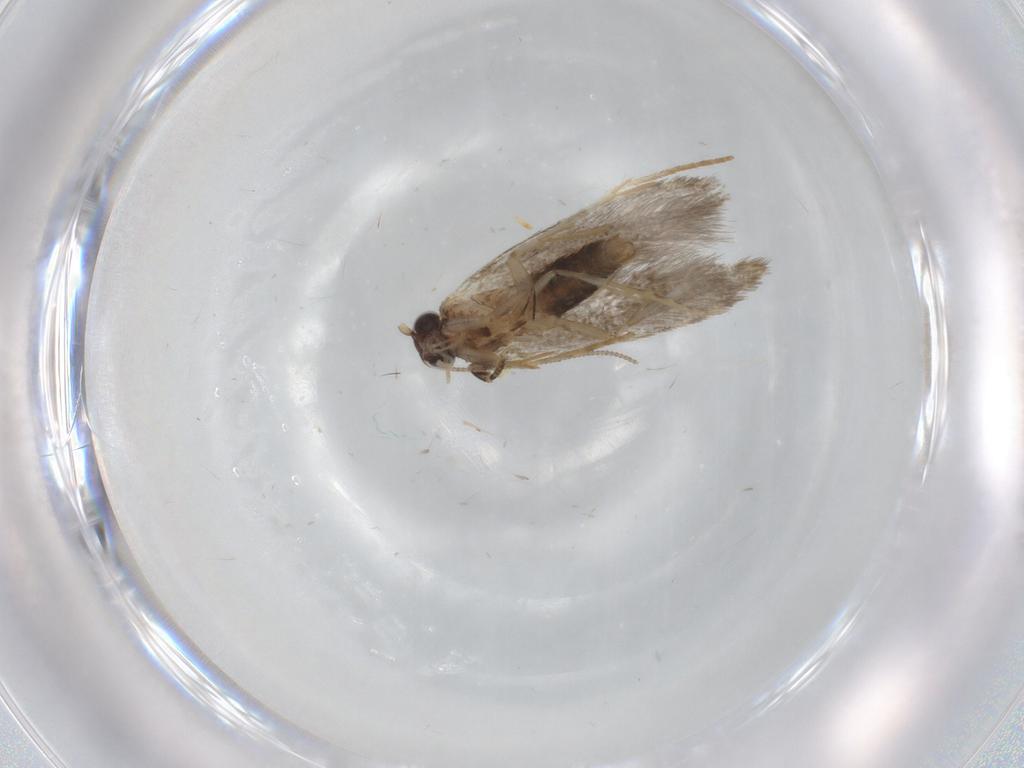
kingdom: Animalia
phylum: Arthropoda
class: Insecta
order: Lepidoptera
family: Tineidae
